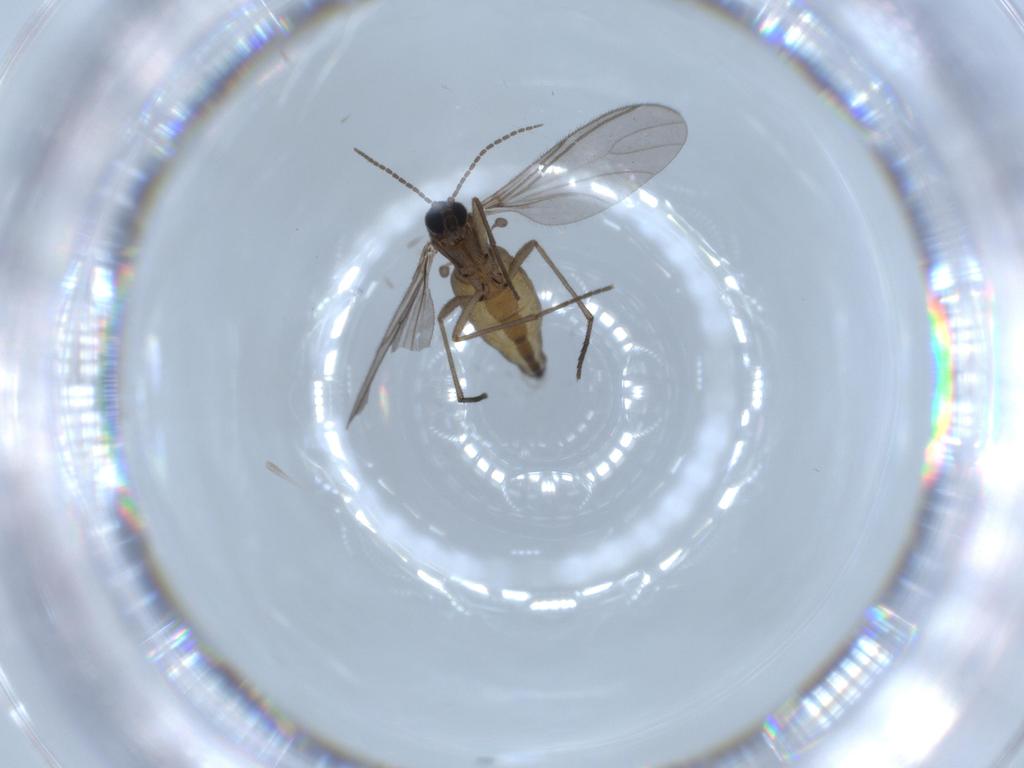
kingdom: Animalia
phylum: Arthropoda
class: Insecta
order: Diptera
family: Sciaridae
